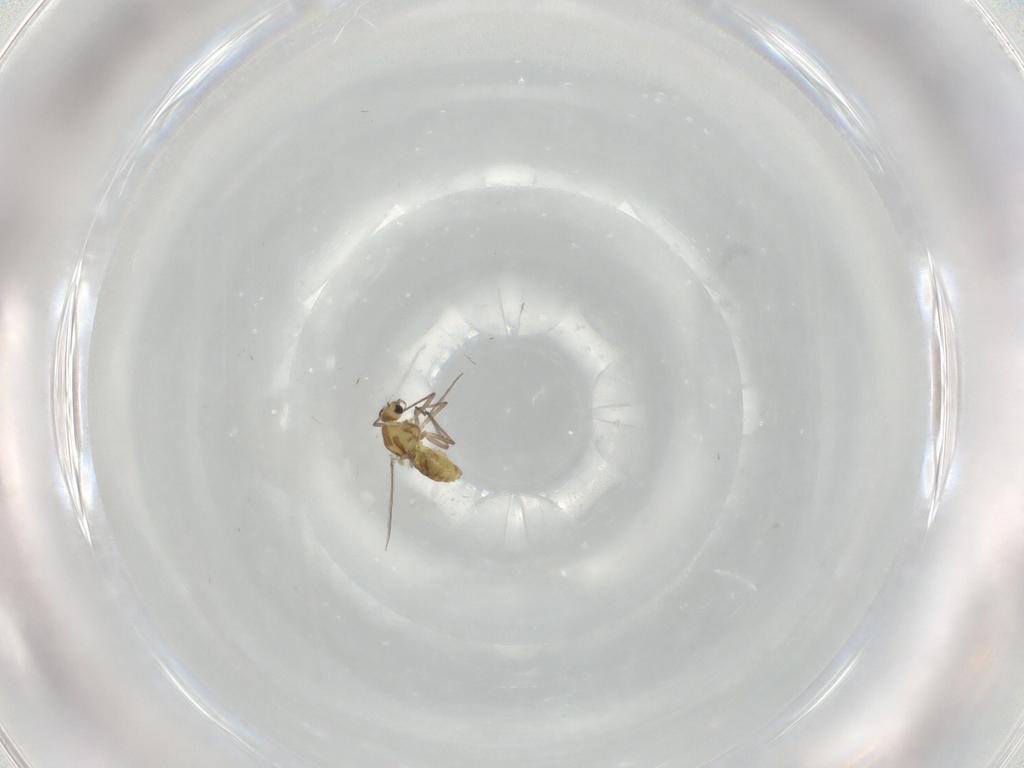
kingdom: Animalia
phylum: Arthropoda
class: Insecta
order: Diptera
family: Chironomidae
